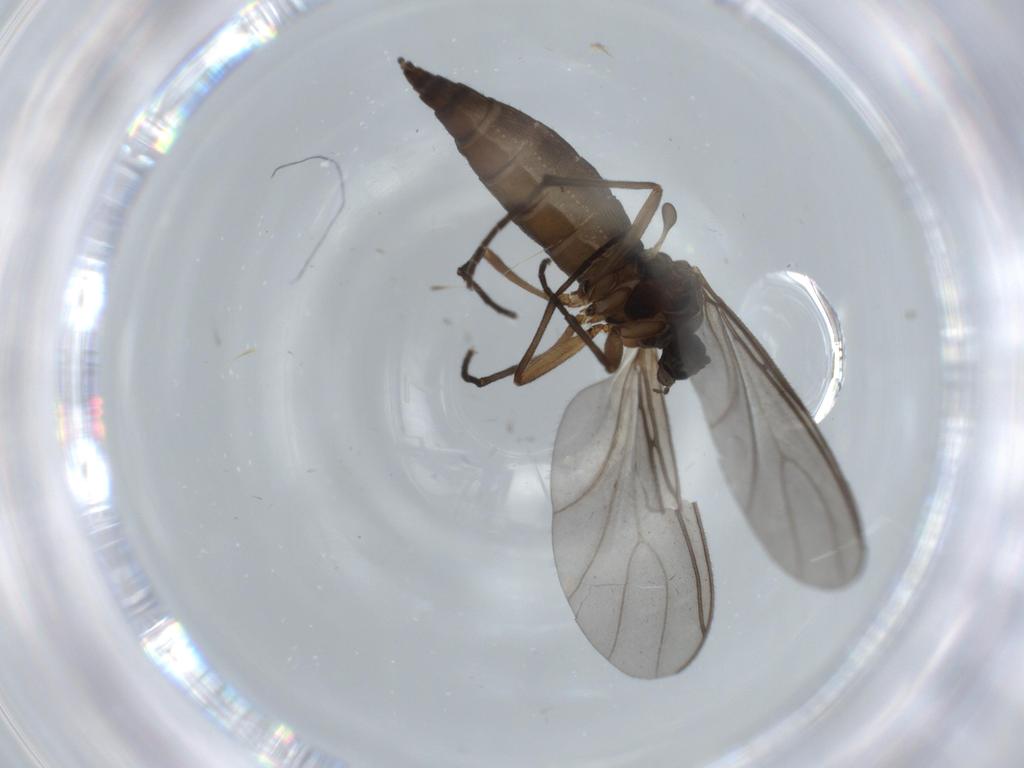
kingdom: Animalia
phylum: Arthropoda
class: Insecta
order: Diptera
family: Sciaridae
